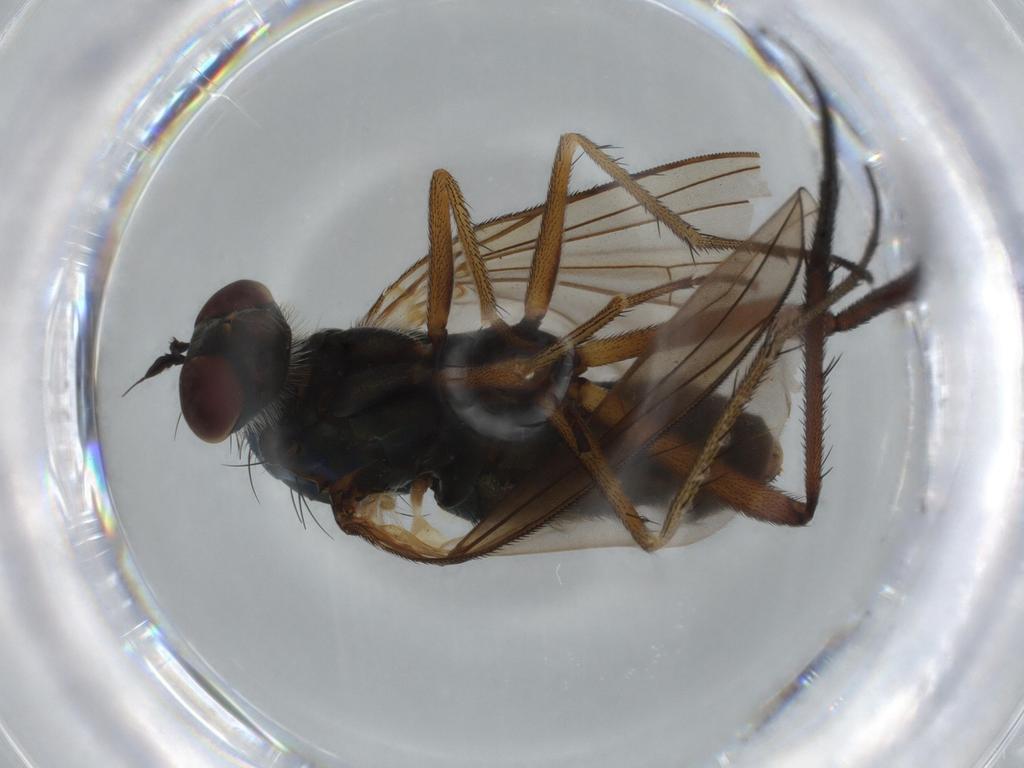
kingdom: Animalia
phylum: Arthropoda
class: Insecta
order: Diptera
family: Dolichopodidae
